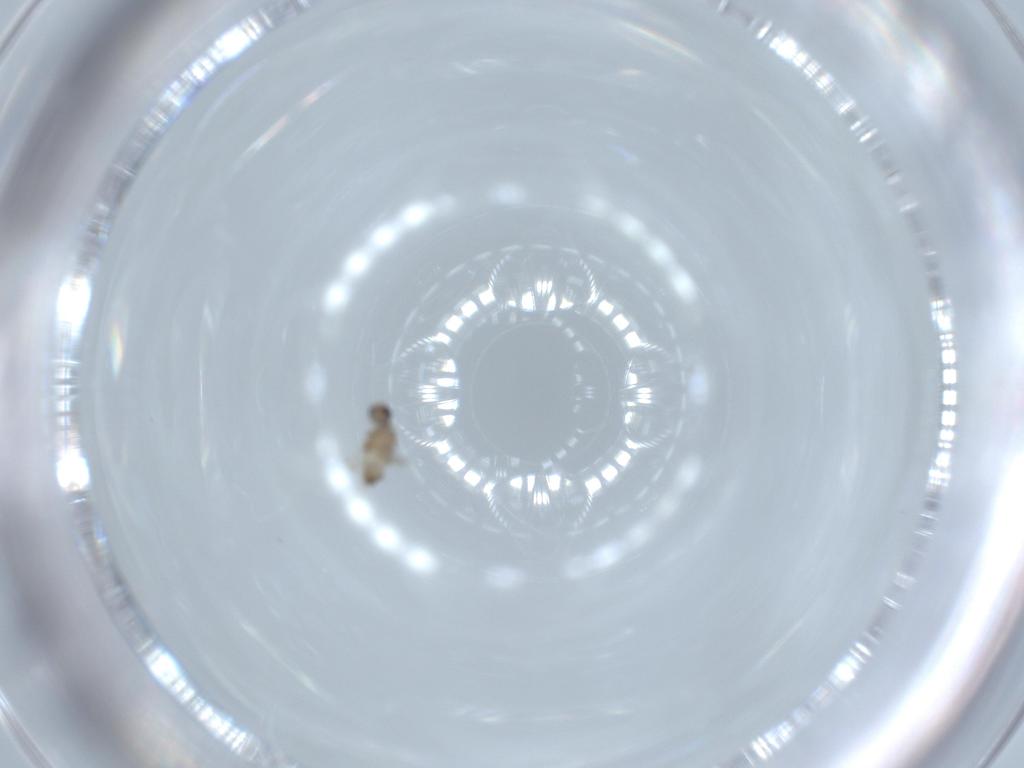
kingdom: Animalia
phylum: Arthropoda
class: Insecta
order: Diptera
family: Cecidomyiidae
